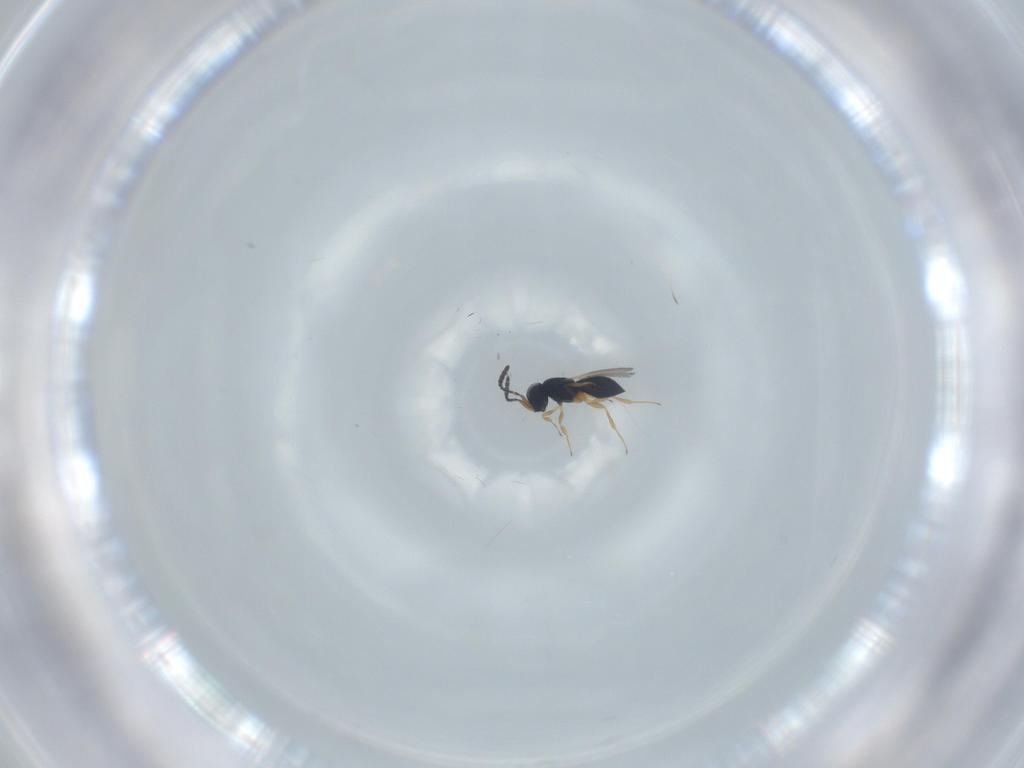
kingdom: Animalia
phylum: Arthropoda
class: Insecta
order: Hymenoptera
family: Scelionidae
